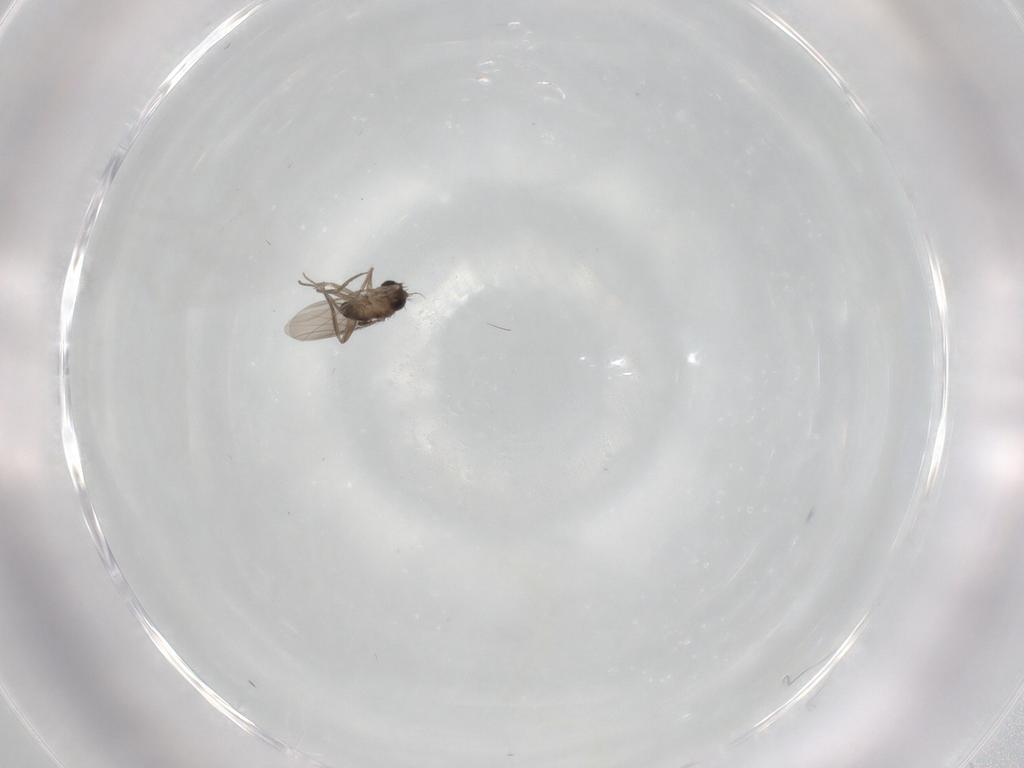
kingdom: Animalia
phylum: Arthropoda
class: Insecta
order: Diptera
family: Phoridae
